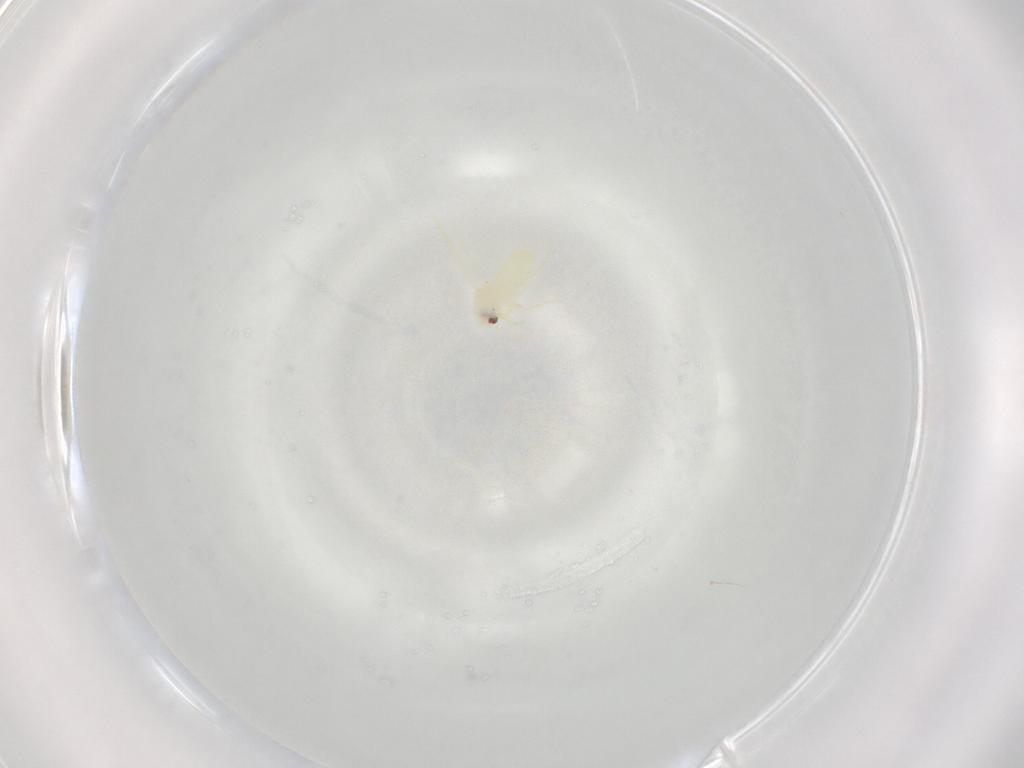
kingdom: Animalia
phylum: Arthropoda
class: Insecta
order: Hemiptera
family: Aleyrodidae
